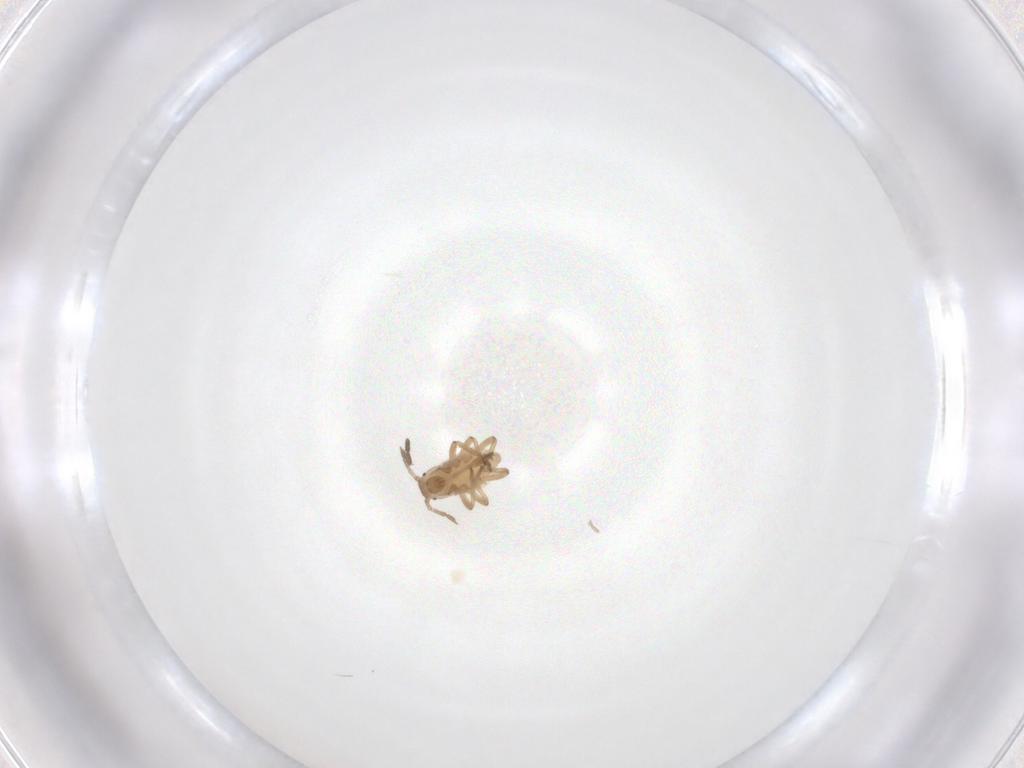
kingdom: Animalia
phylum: Arthropoda
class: Insecta
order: Hemiptera
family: Aphididae
